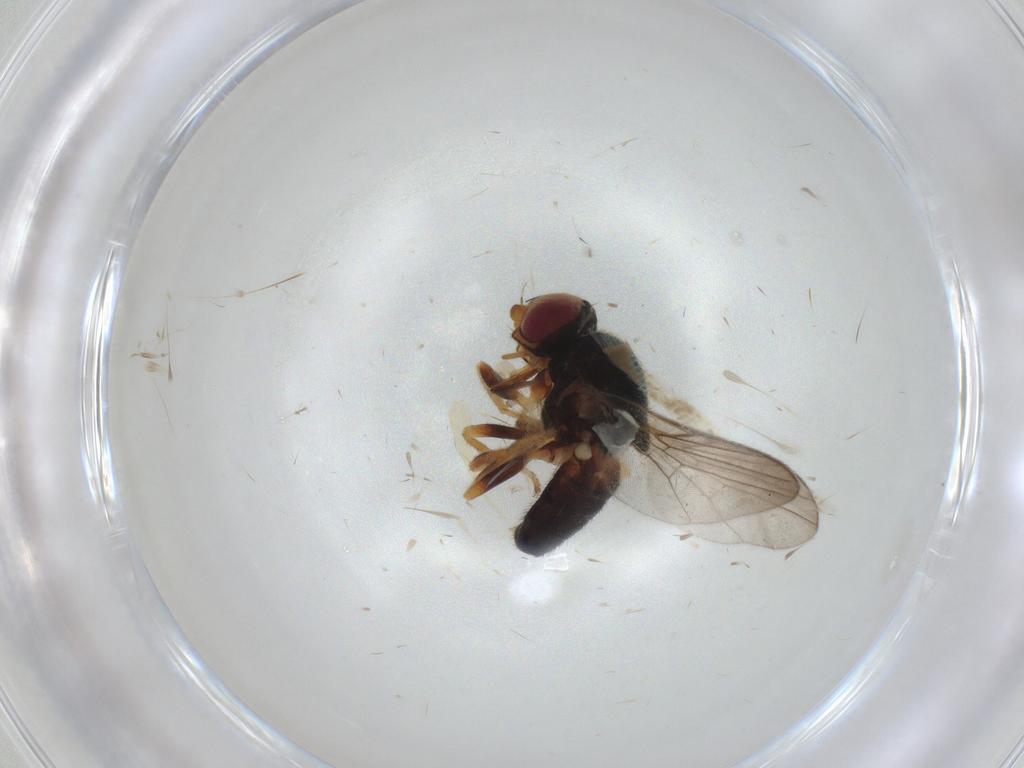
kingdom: Animalia
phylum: Arthropoda
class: Insecta
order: Diptera
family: Chloropidae
